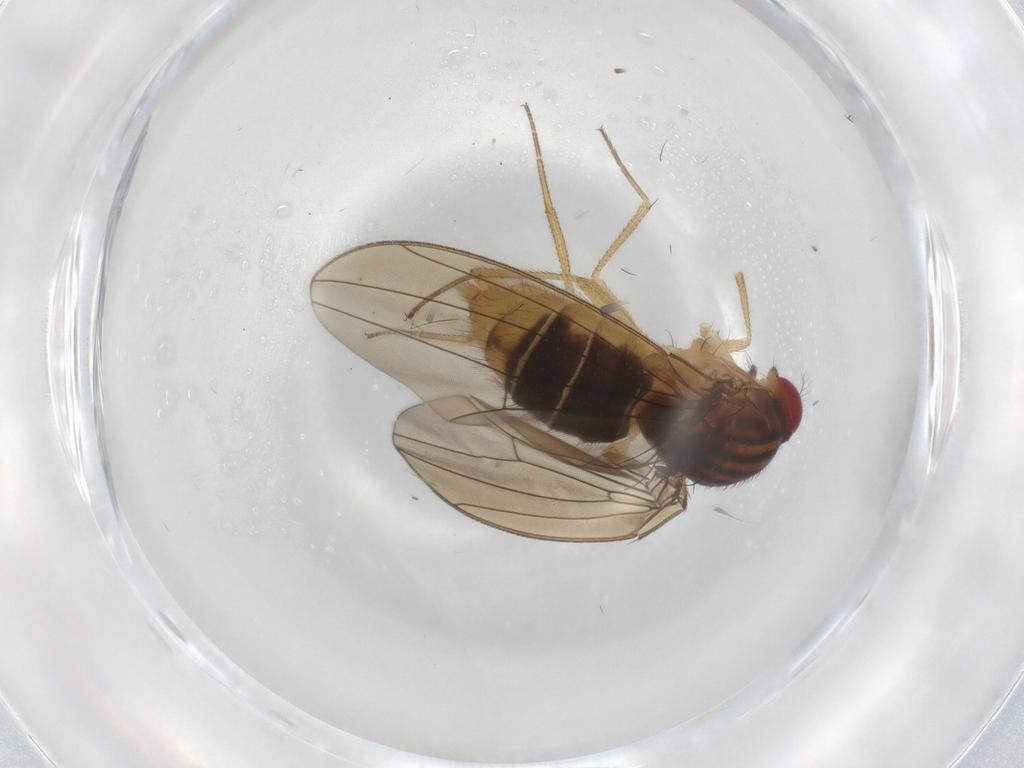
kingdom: Animalia
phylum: Arthropoda
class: Insecta
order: Diptera
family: Drosophilidae
